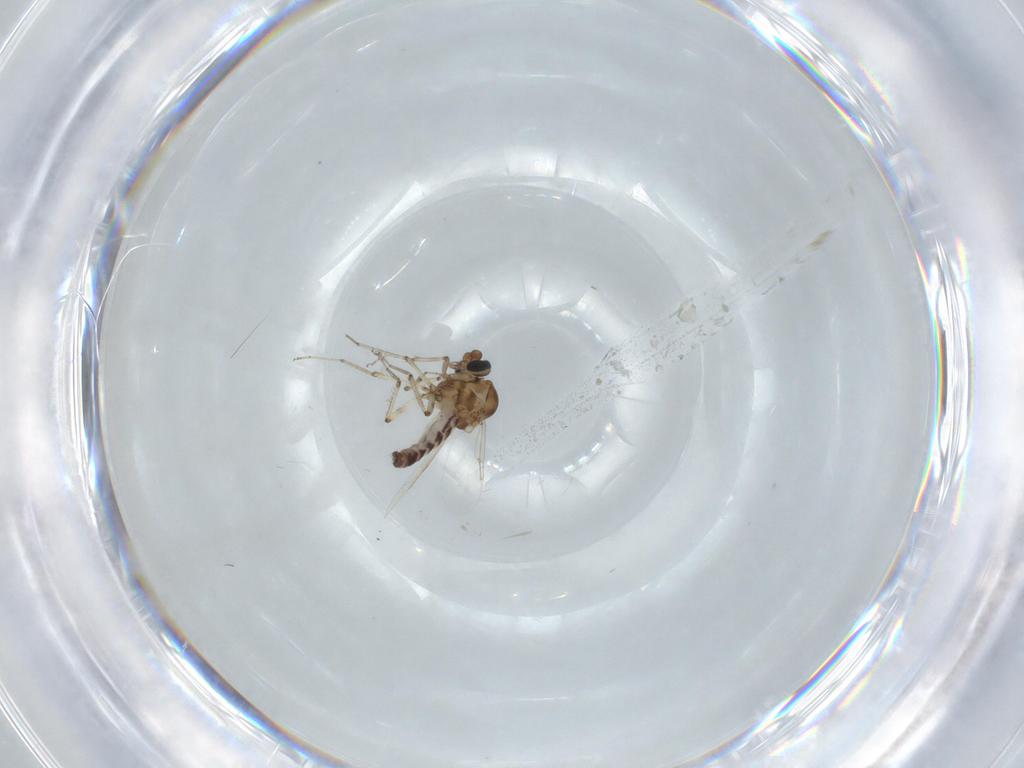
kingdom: Animalia
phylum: Arthropoda
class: Insecta
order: Diptera
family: Ceratopogonidae
